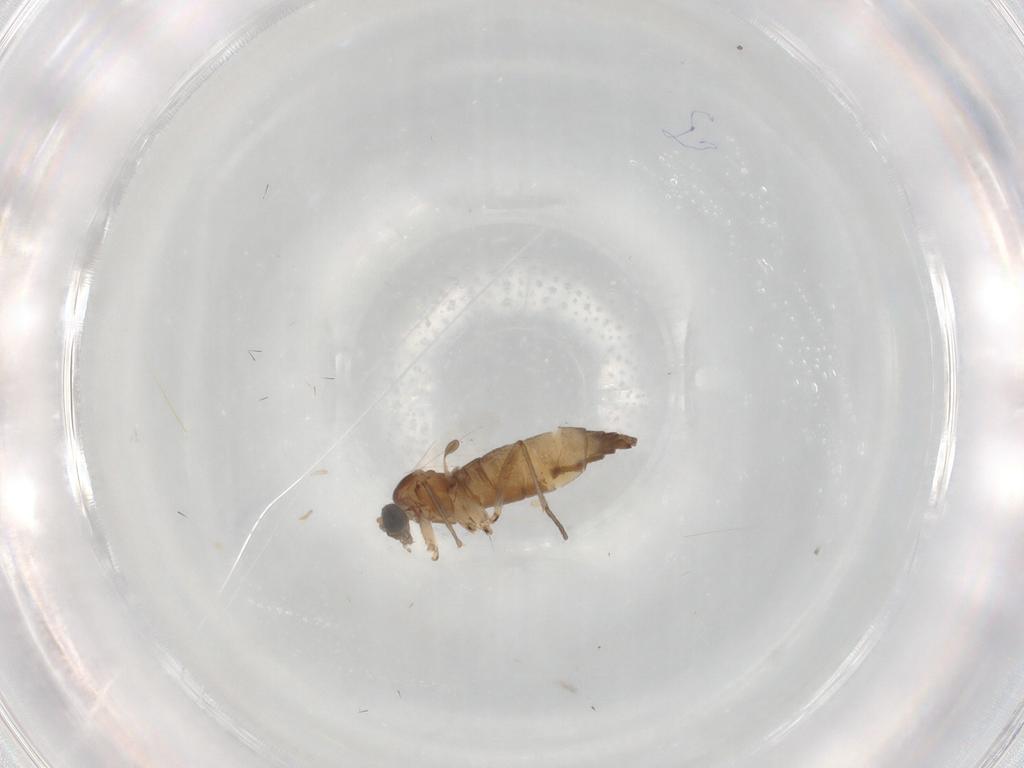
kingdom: Animalia
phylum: Arthropoda
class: Insecta
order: Diptera
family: Sciaridae
